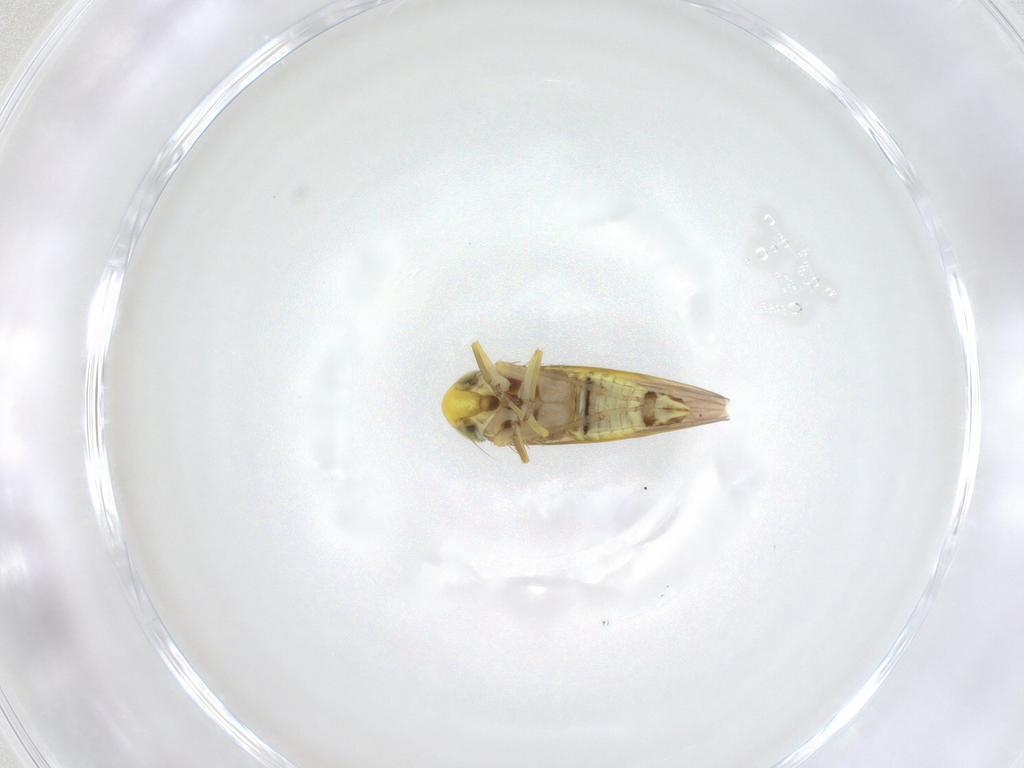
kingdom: Animalia
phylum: Arthropoda
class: Insecta
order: Hemiptera
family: Cicadellidae
